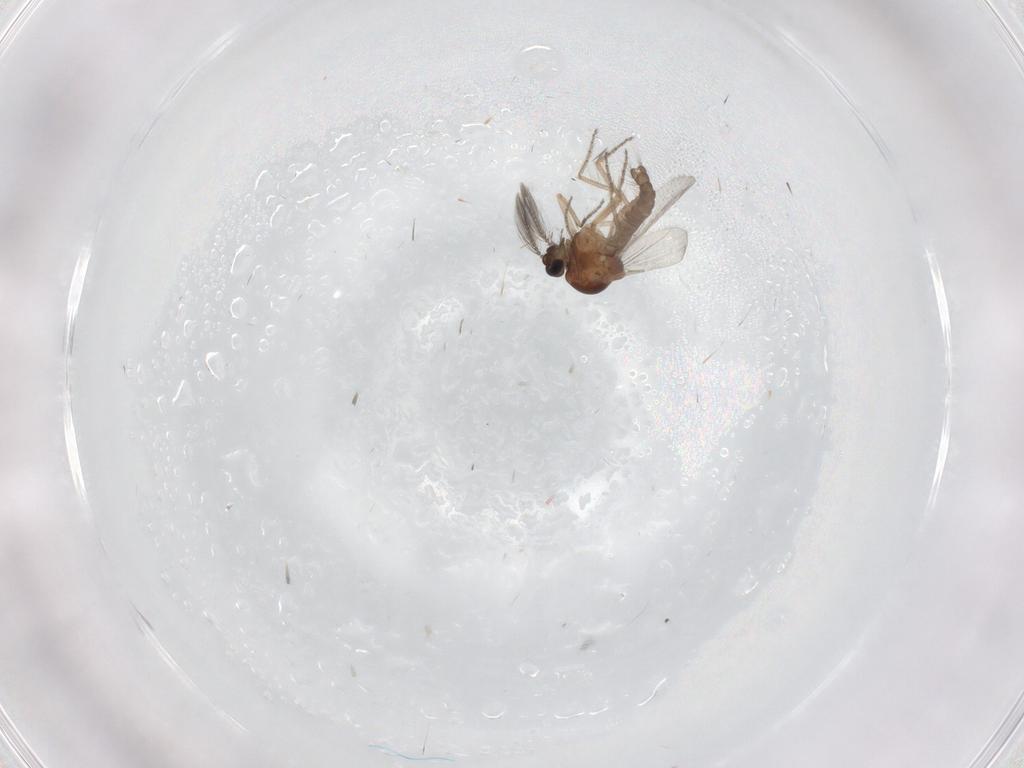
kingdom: Animalia
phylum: Arthropoda
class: Insecta
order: Diptera
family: Ceratopogonidae
